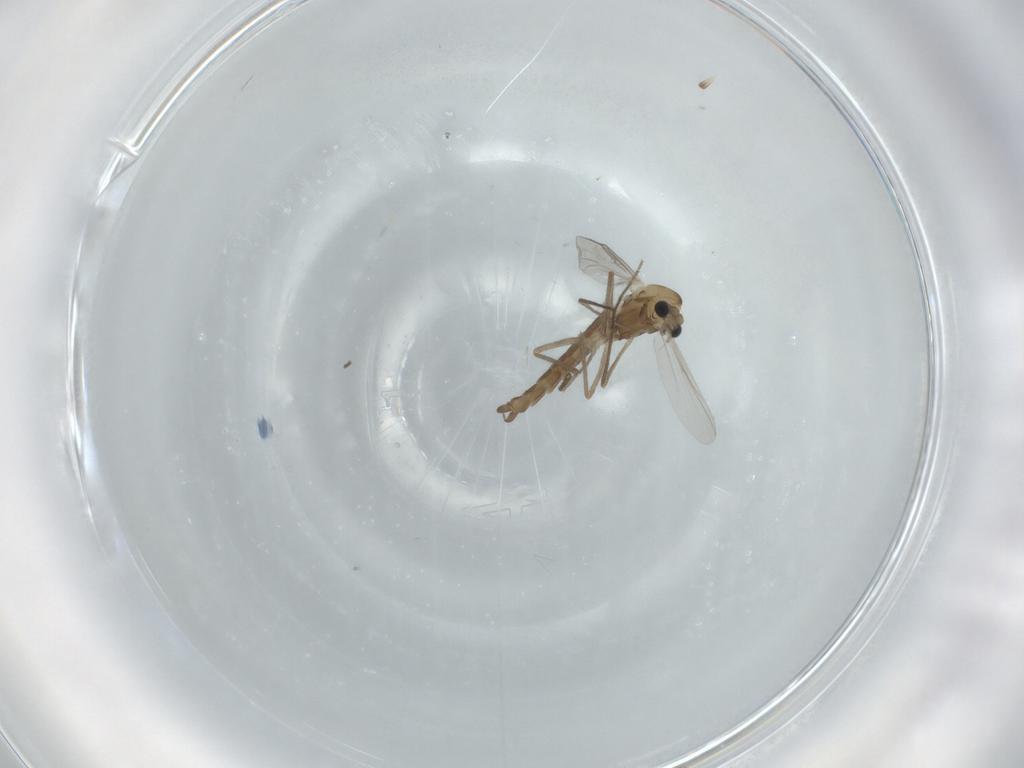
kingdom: Animalia
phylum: Arthropoda
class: Insecta
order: Diptera
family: Chironomidae
